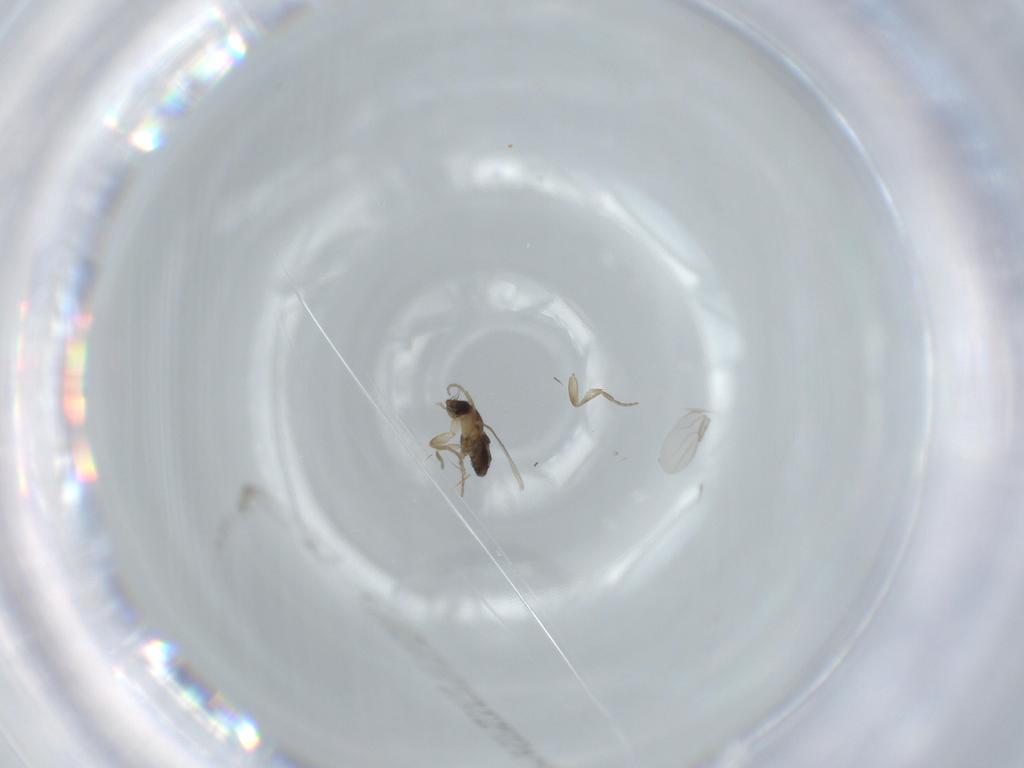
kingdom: Animalia
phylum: Arthropoda
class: Insecta
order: Diptera
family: Phoridae
